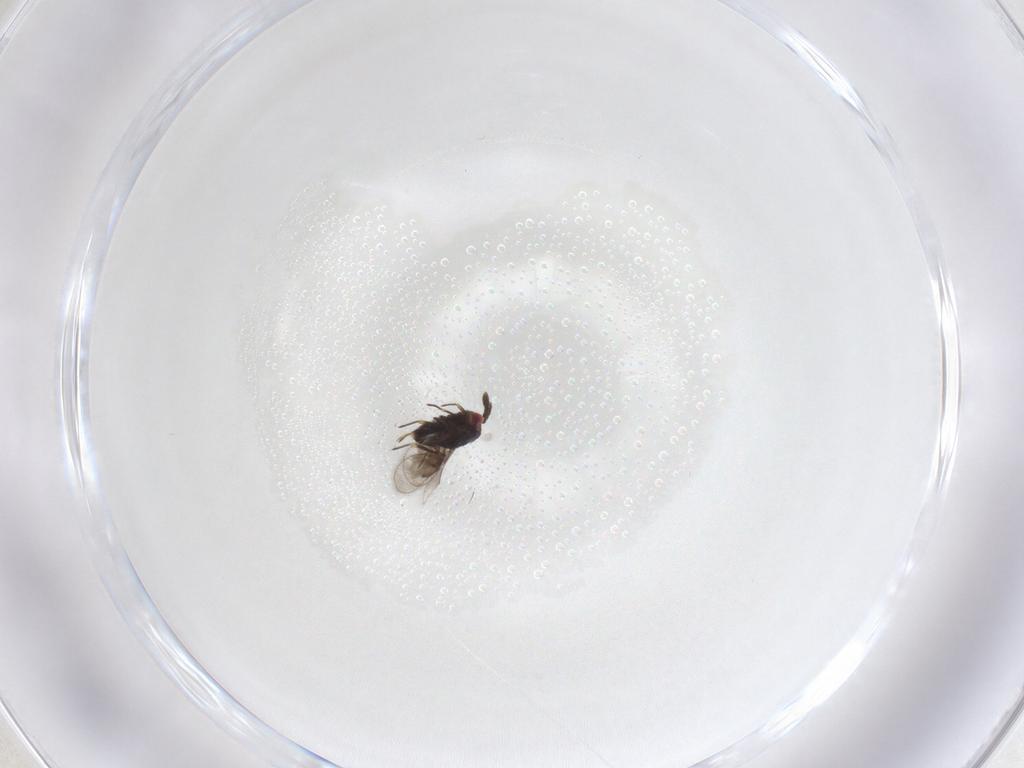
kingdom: Animalia
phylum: Arthropoda
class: Insecta
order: Hymenoptera
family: Eulophidae
